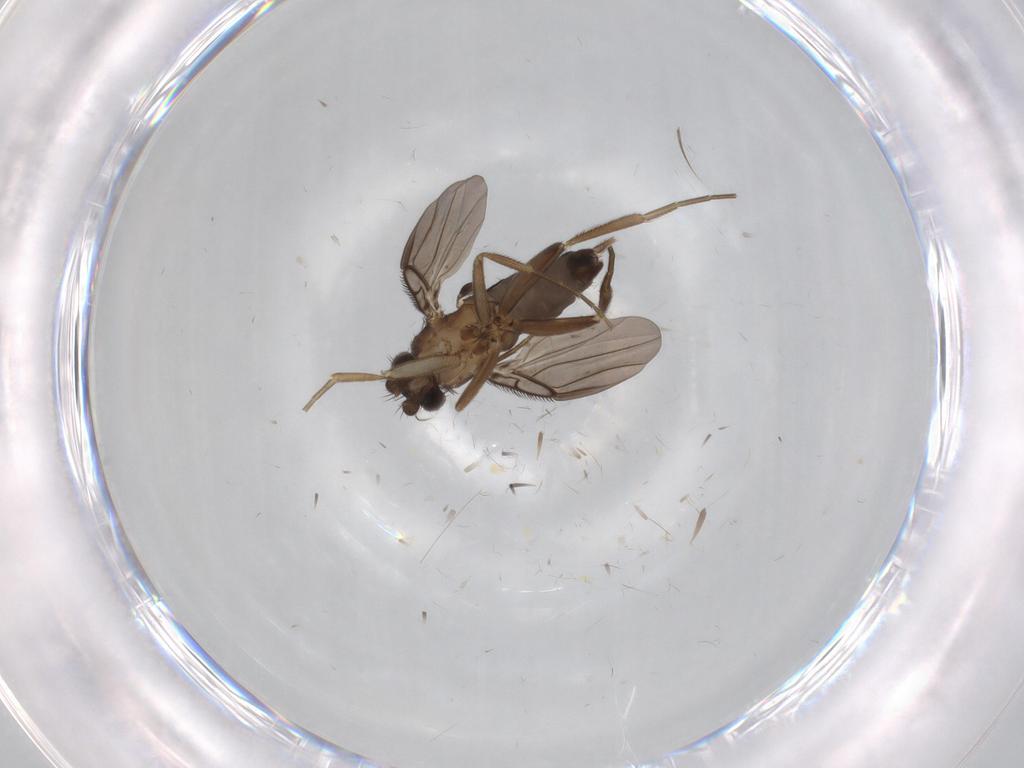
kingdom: Animalia
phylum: Arthropoda
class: Insecta
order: Diptera
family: Phoridae
